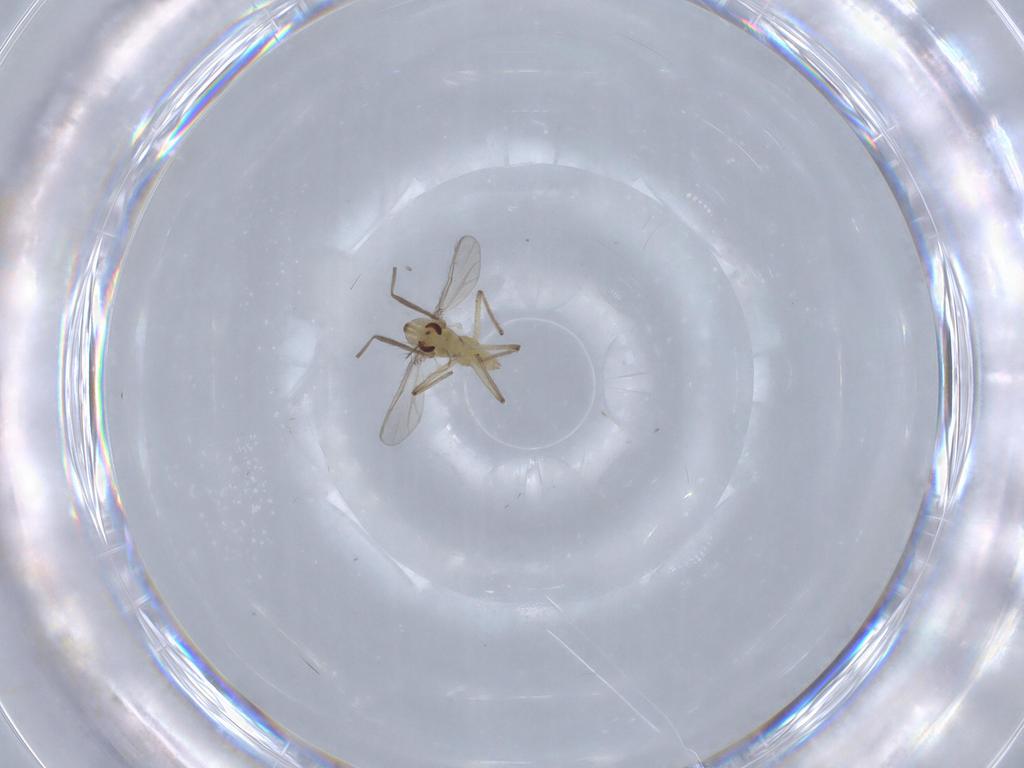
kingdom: Animalia
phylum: Arthropoda
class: Insecta
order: Diptera
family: Chironomidae
